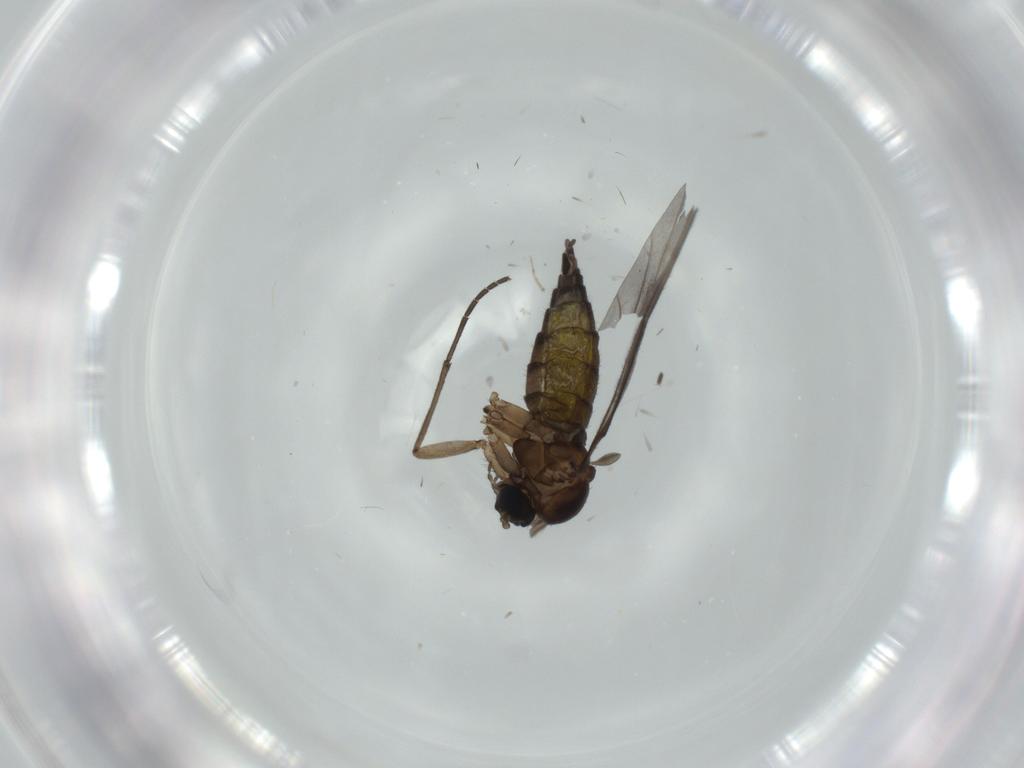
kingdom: Animalia
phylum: Arthropoda
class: Insecta
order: Diptera
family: Sciaridae
